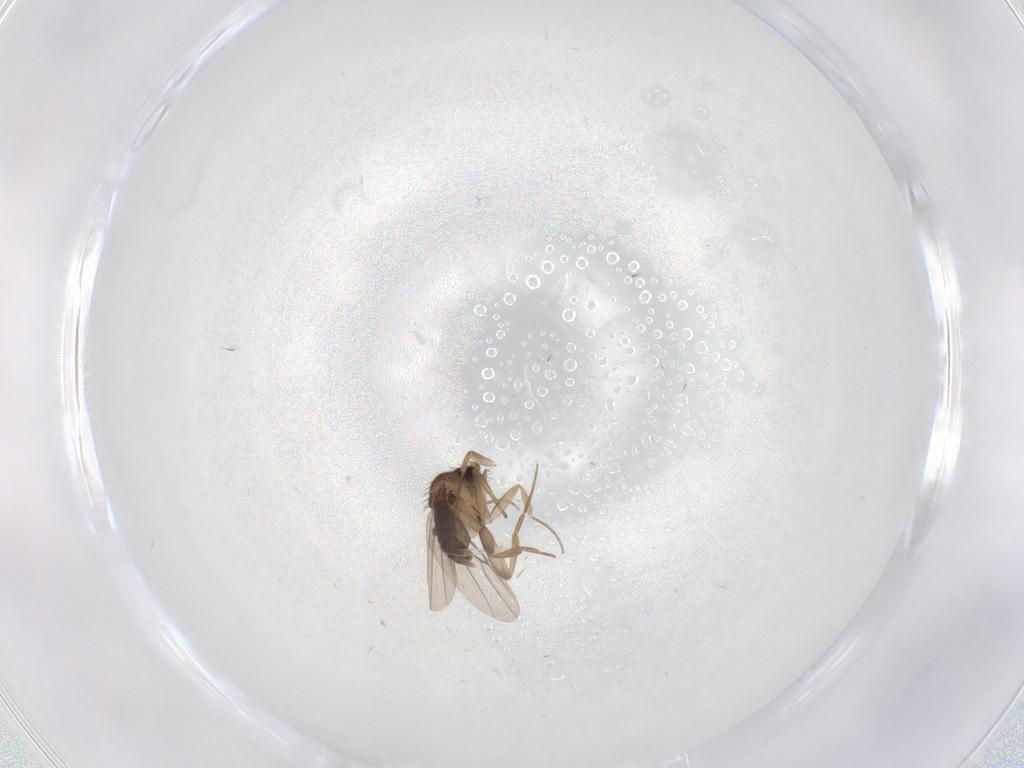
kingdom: Animalia
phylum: Arthropoda
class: Insecta
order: Diptera
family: Phoridae
